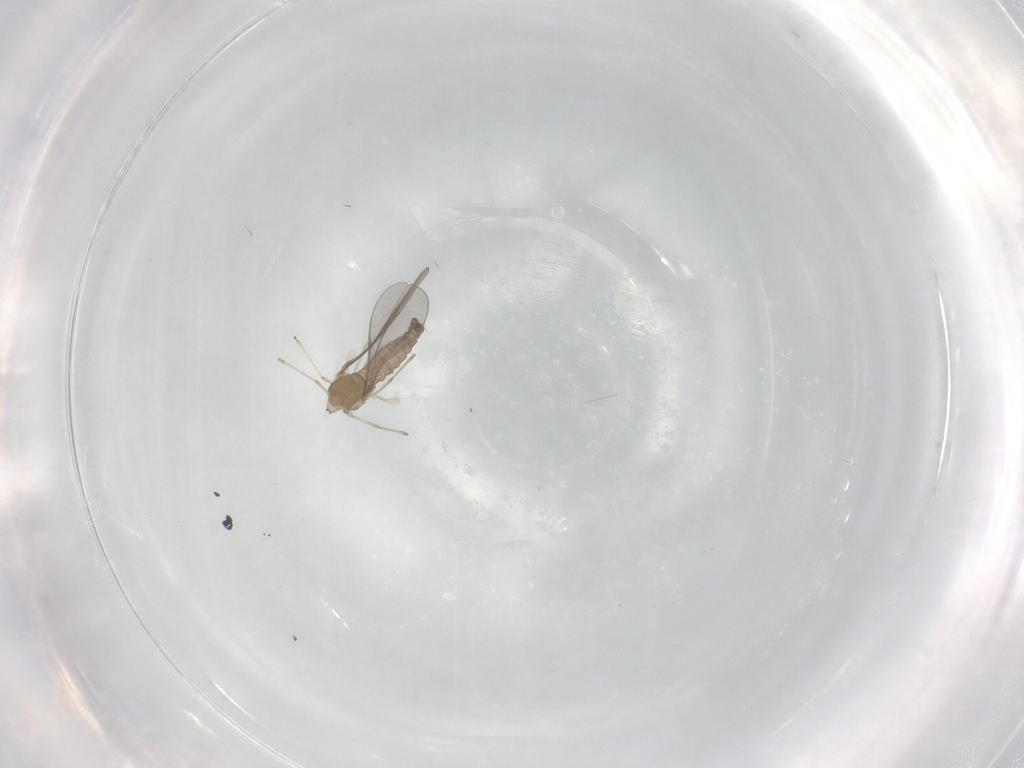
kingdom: Animalia
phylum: Arthropoda
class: Insecta
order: Diptera
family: Cecidomyiidae
